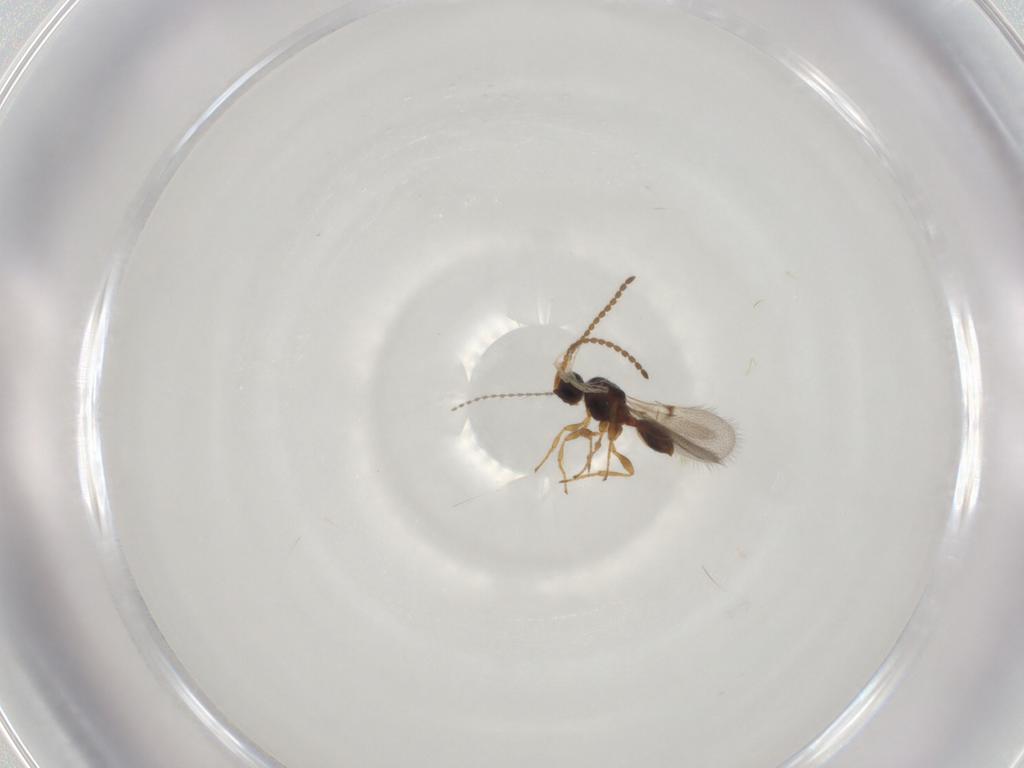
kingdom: Animalia
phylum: Arthropoda
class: Insecta
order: Hymenoptera
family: Diapriidae
